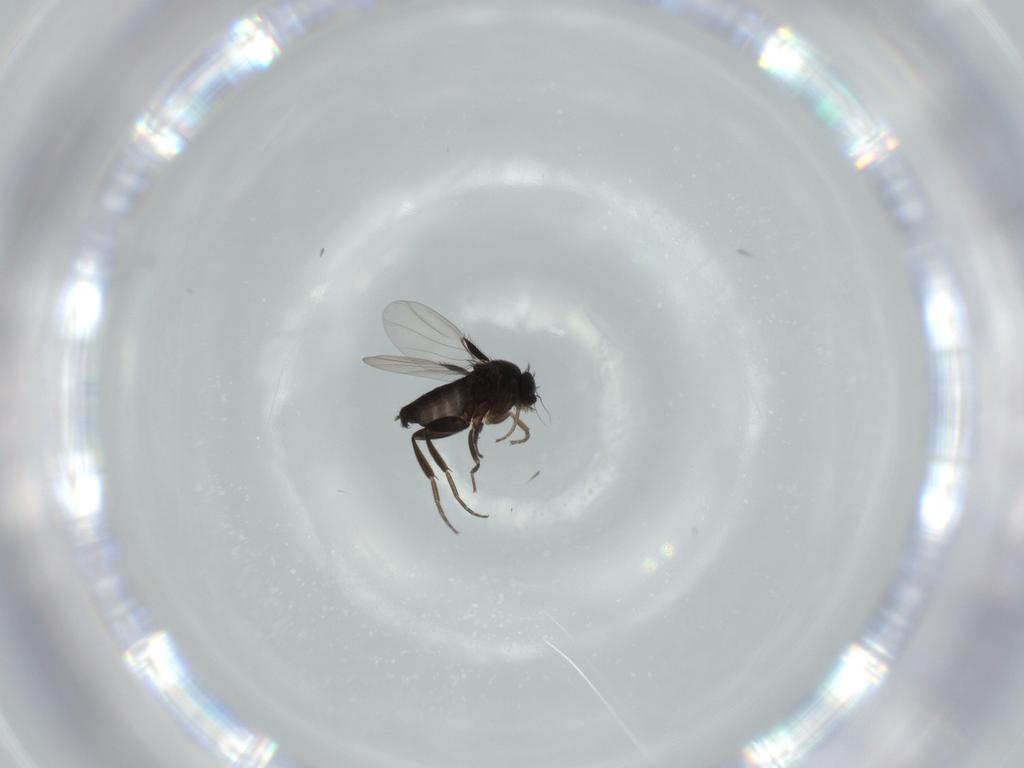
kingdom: Animalia
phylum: Arthropoda
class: Insecta
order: Diptera
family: Phoridae
